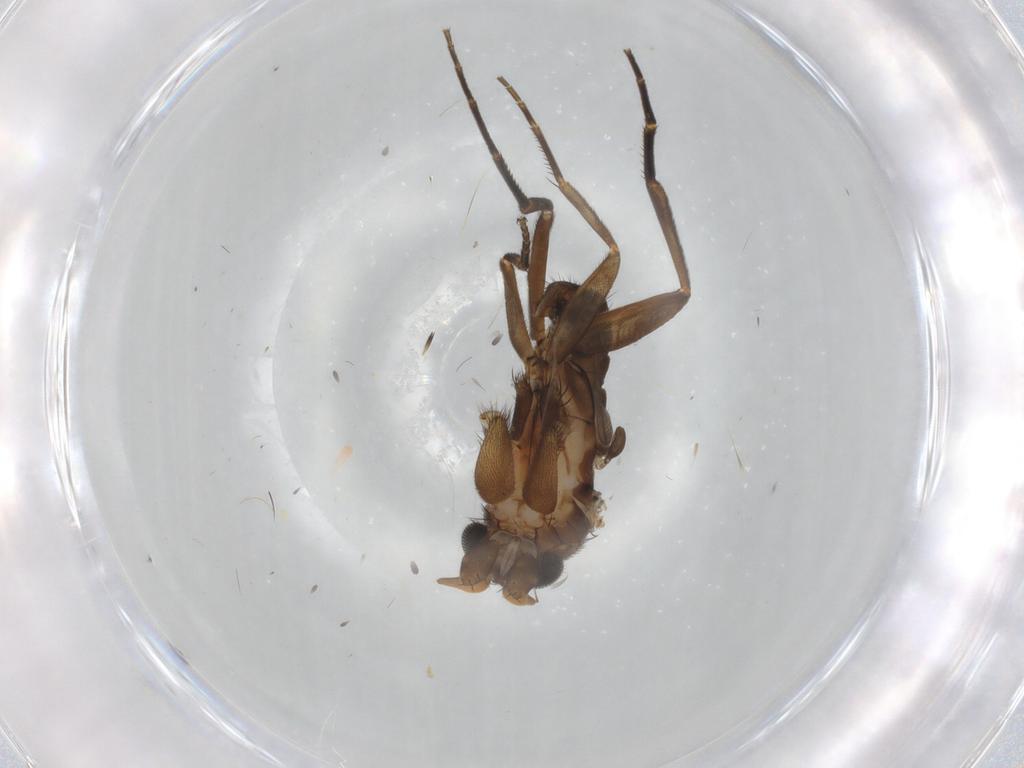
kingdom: Animalia
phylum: Arthropoda
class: Insecta
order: Diptera
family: Phoridae
